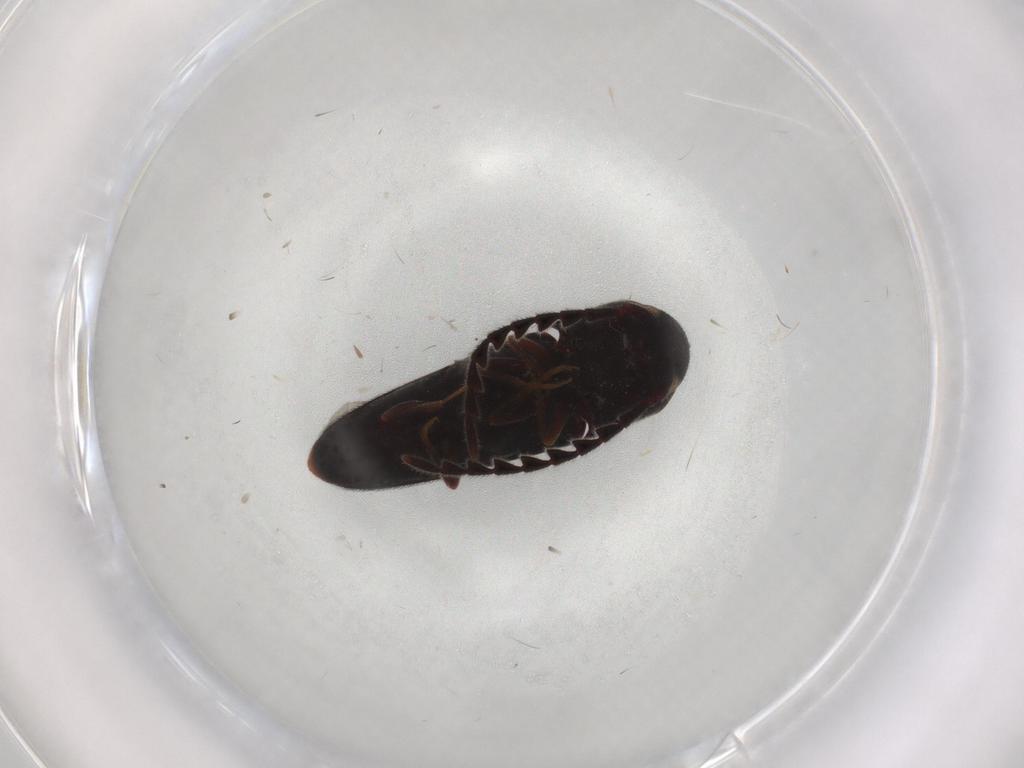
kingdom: Animalia
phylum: Arthropoda
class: Insecta
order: Coleoptera
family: Eucnemidae
